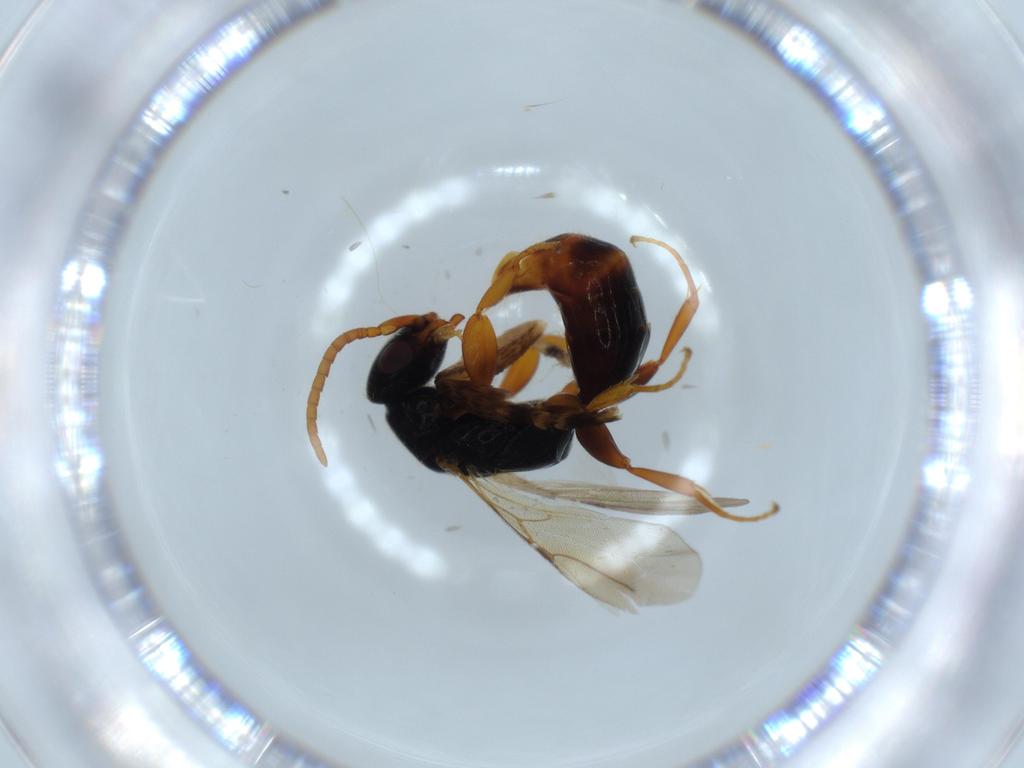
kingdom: Animalia
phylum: Arthropoda
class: Insecta
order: Hymenoptera
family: Bethylidae
